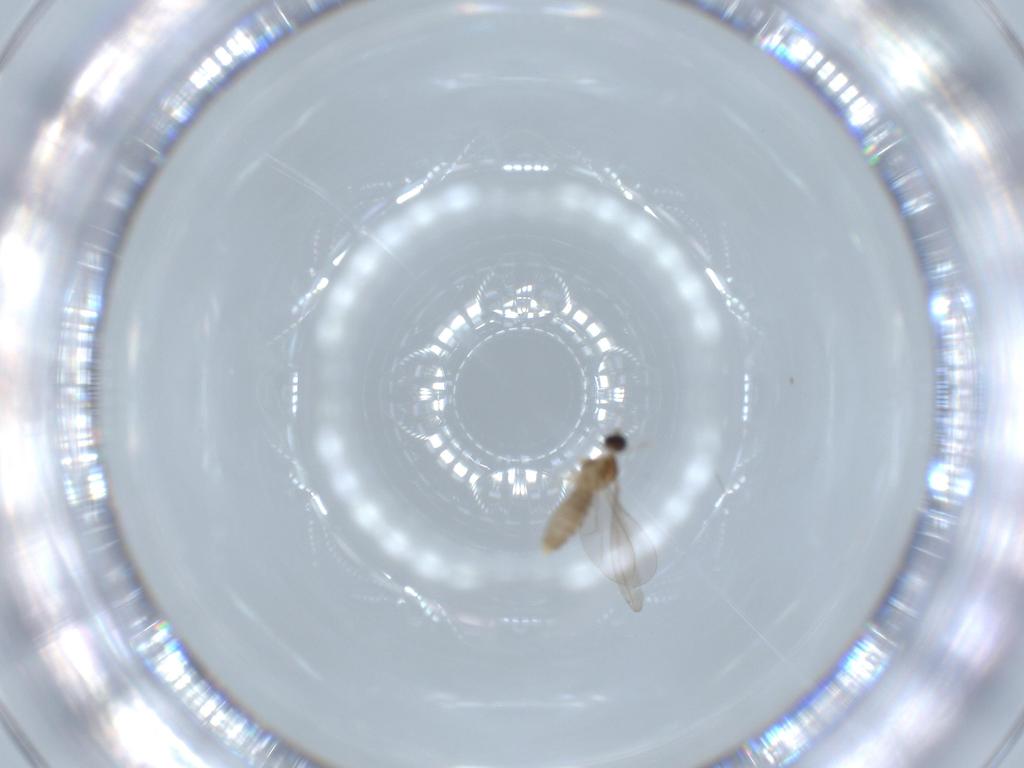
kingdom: Animalia
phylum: Arthropoda
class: Insecta
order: Diptera
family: Cecidomyiidae
